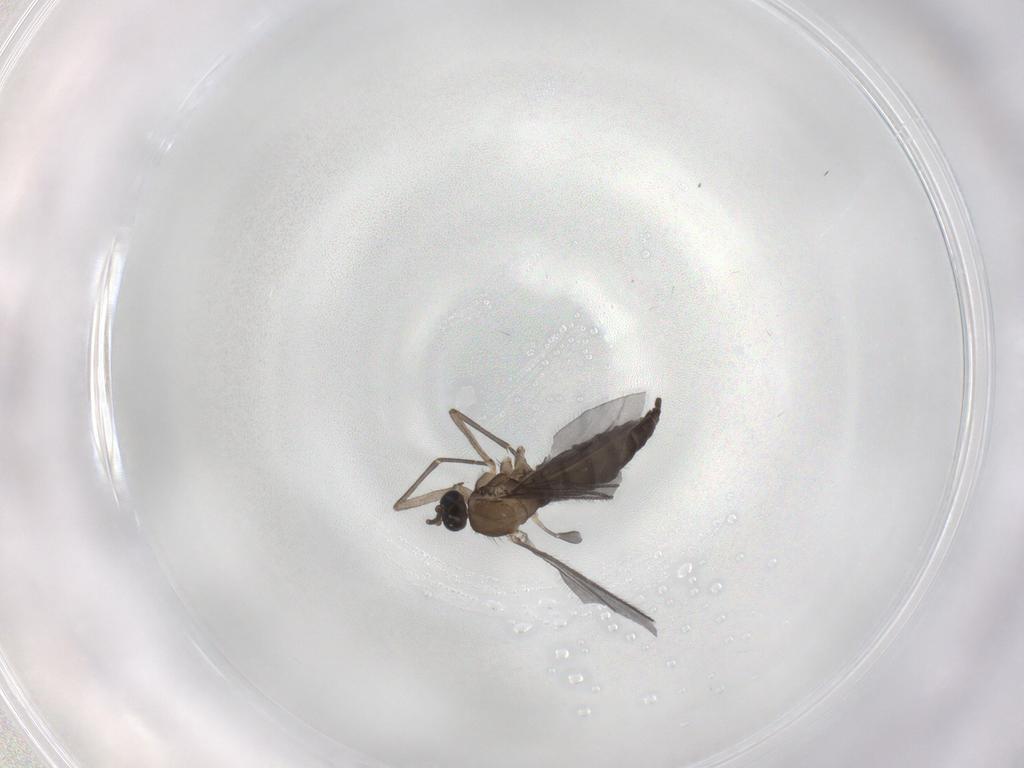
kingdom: Animalia
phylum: Arthropoda
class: Insecta
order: Diptera
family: Sciaridae
